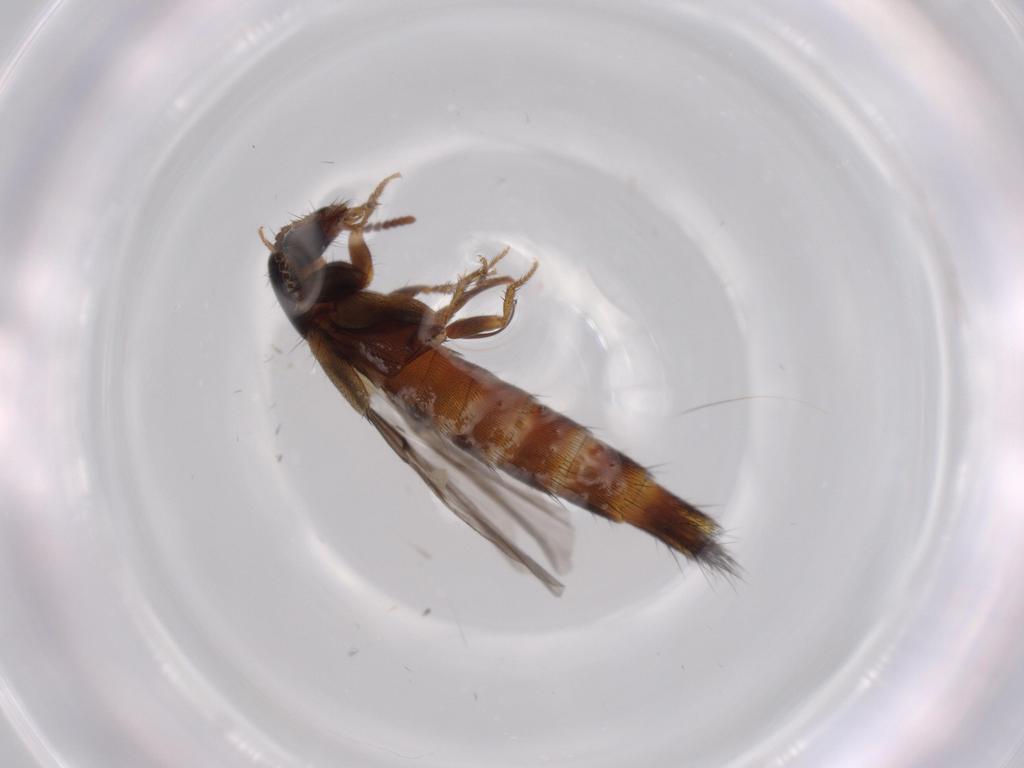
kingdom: Animalia
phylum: Arthropoda
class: Insecta
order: Coleoptera
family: Staphylinidae
